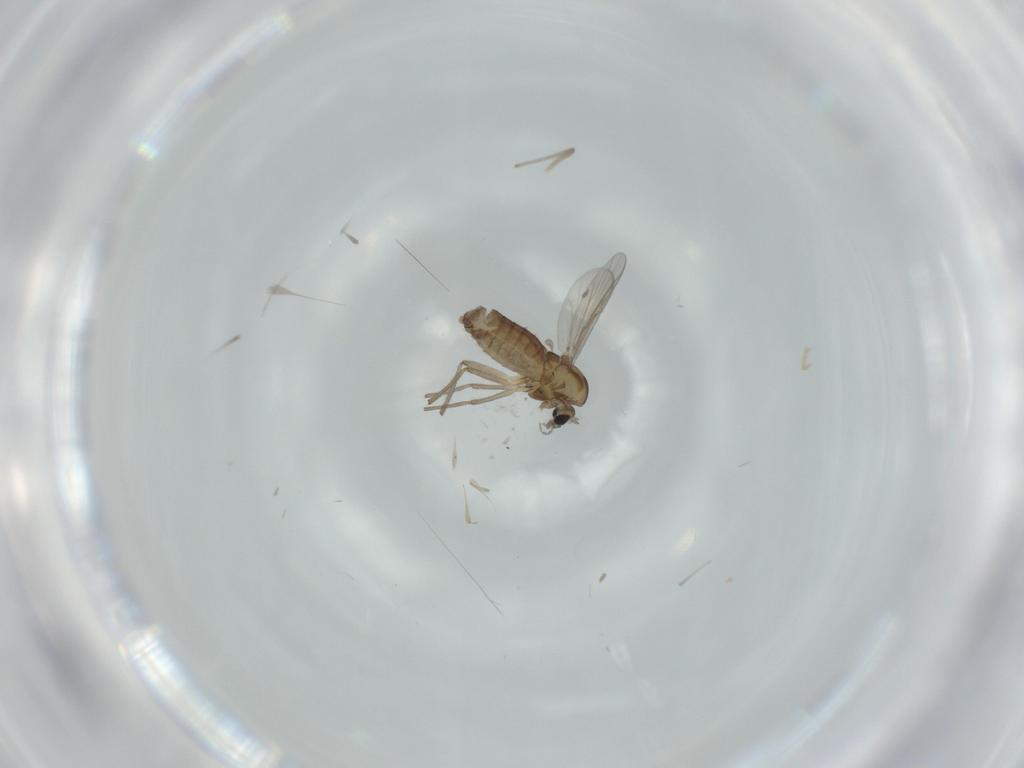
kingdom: Animalia
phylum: Arthropoda
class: Insecta
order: Diptera
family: Chironomidae
